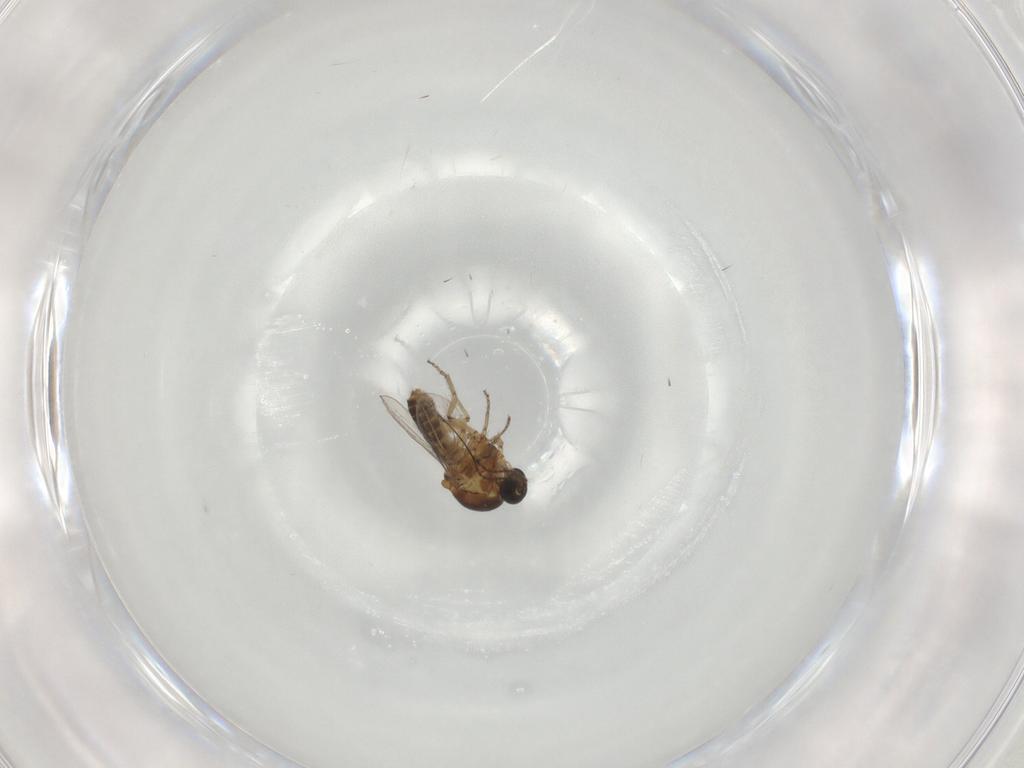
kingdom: Animalia
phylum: Arthropoda
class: Insecta
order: Diptera
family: Ceratopogonidae
